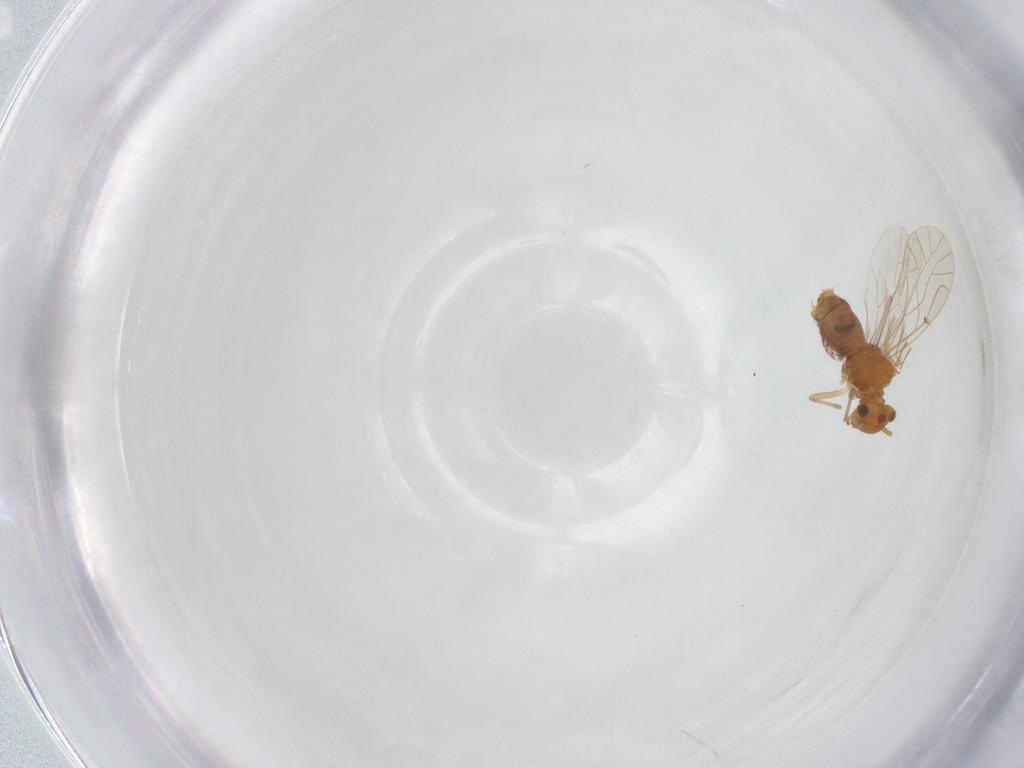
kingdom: Animalia
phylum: Arthropoda
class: Insecta
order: Psocodea
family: Lachesillidae
